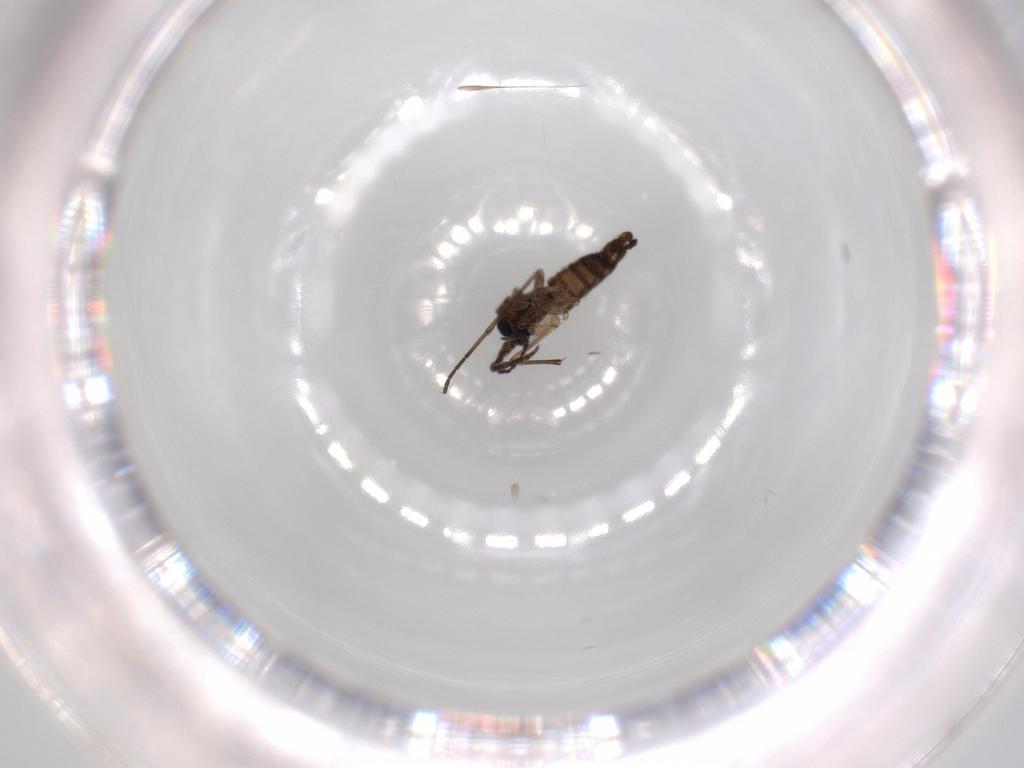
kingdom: Animalia
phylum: Arthropoda
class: Insecta
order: Diptera
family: Sciaridae
